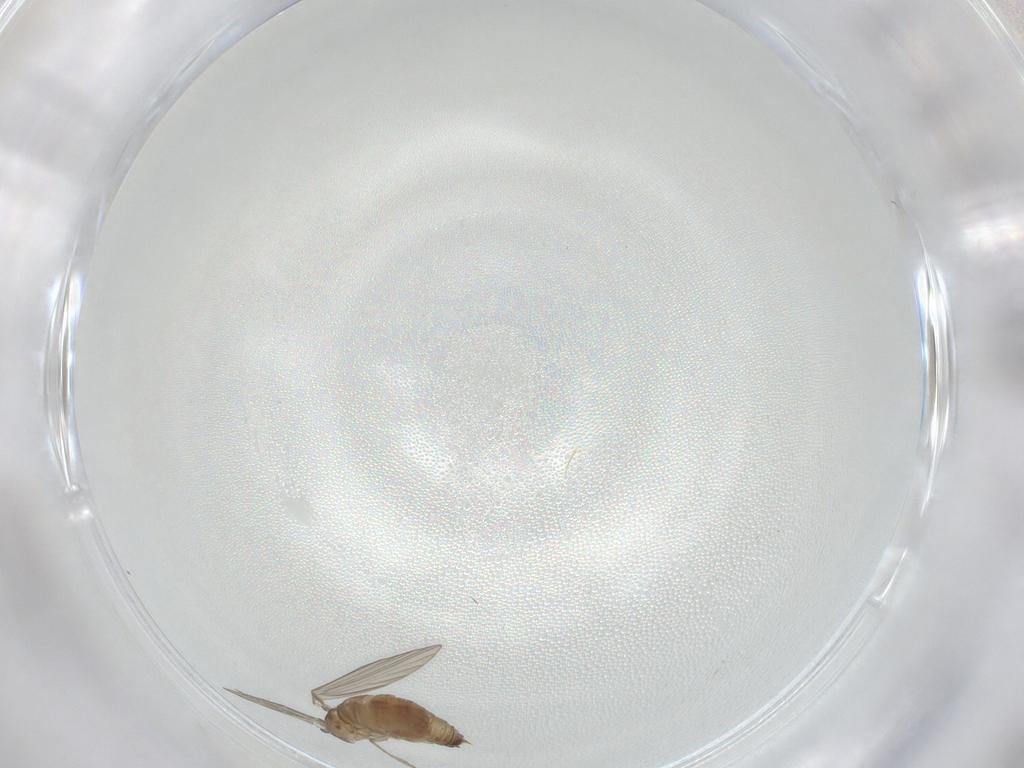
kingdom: Animalia
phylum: Arthropoda
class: Insecta
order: Diptera
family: Psychodidae
